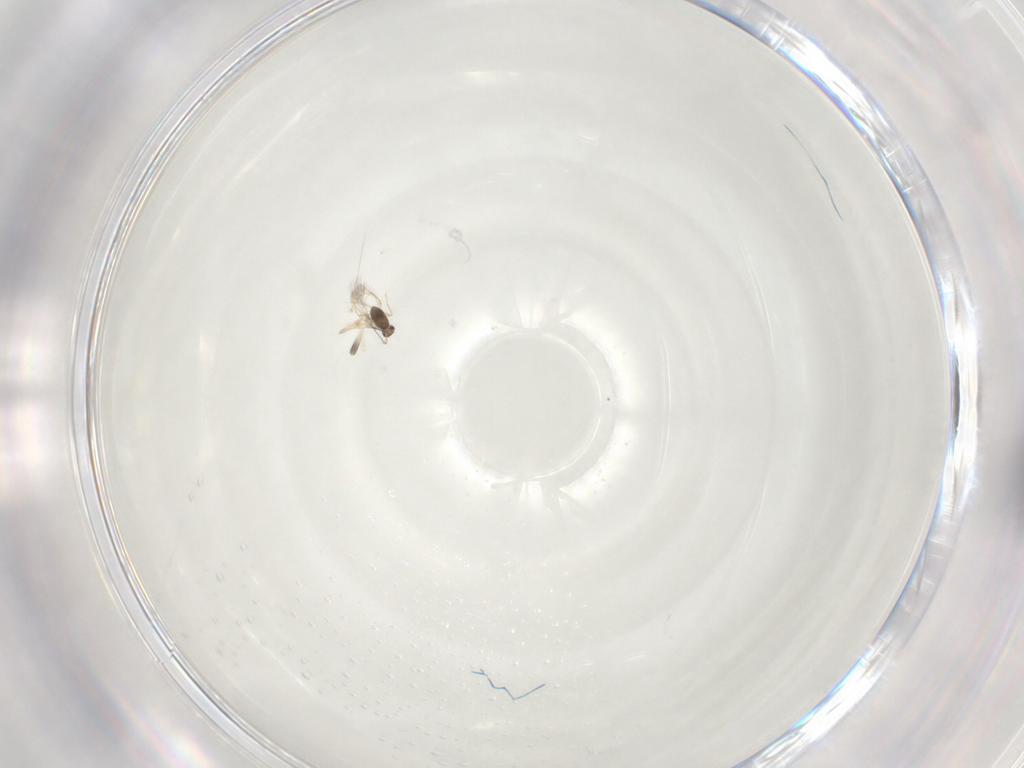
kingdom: Animalia
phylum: Arthropoda
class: Insecta
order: Blattodea
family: Ectobiidae
